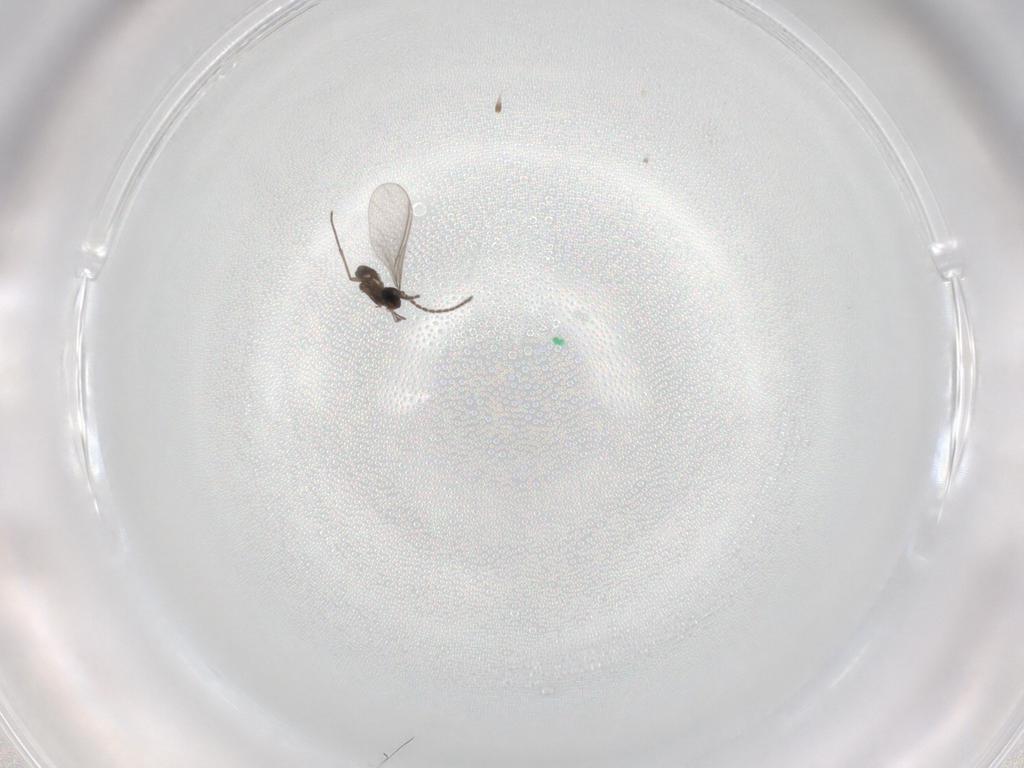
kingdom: Animalia
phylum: Arthropoda
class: Insecta
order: Diptera
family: Sciaridae
